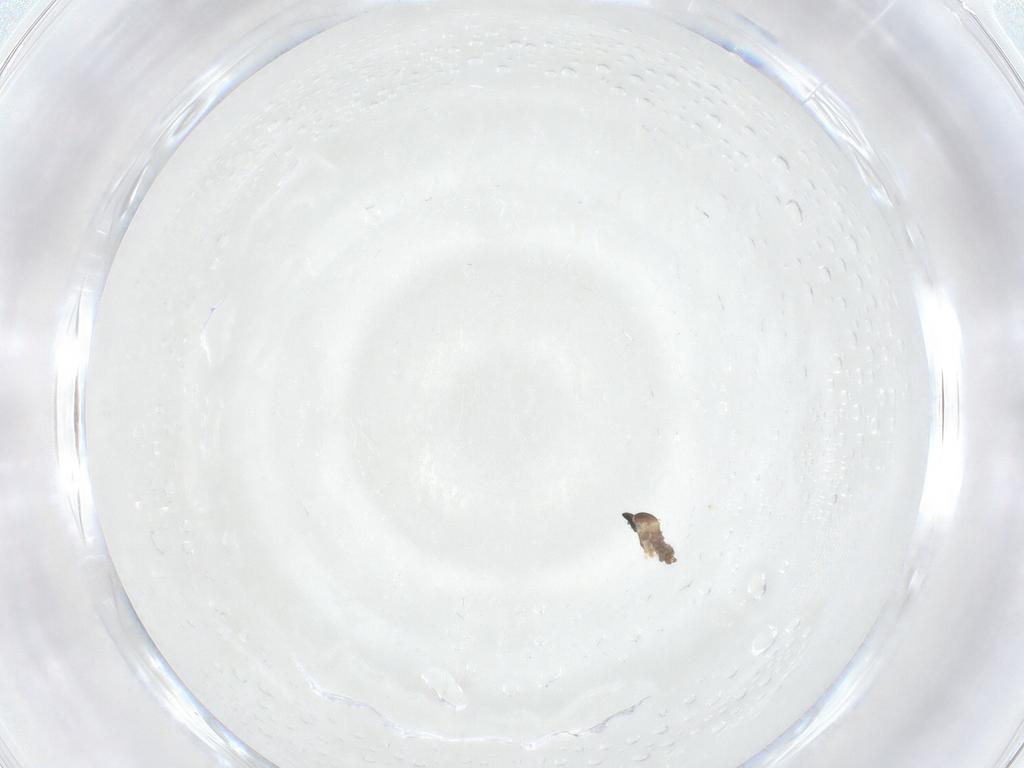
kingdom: Animalia
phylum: Arthropoda
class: Insecta
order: Diptera
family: Cecidomyiidae
